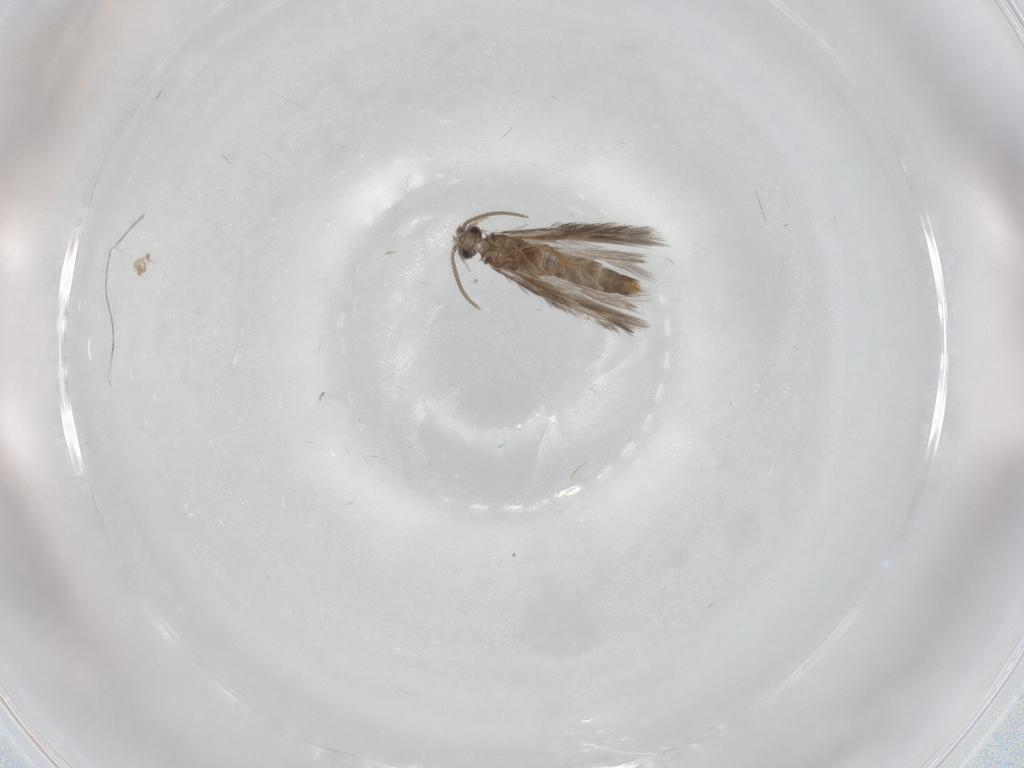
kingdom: Animalia
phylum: Arthropoda
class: Insecta
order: Trichoptera
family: Hydroptilidae
